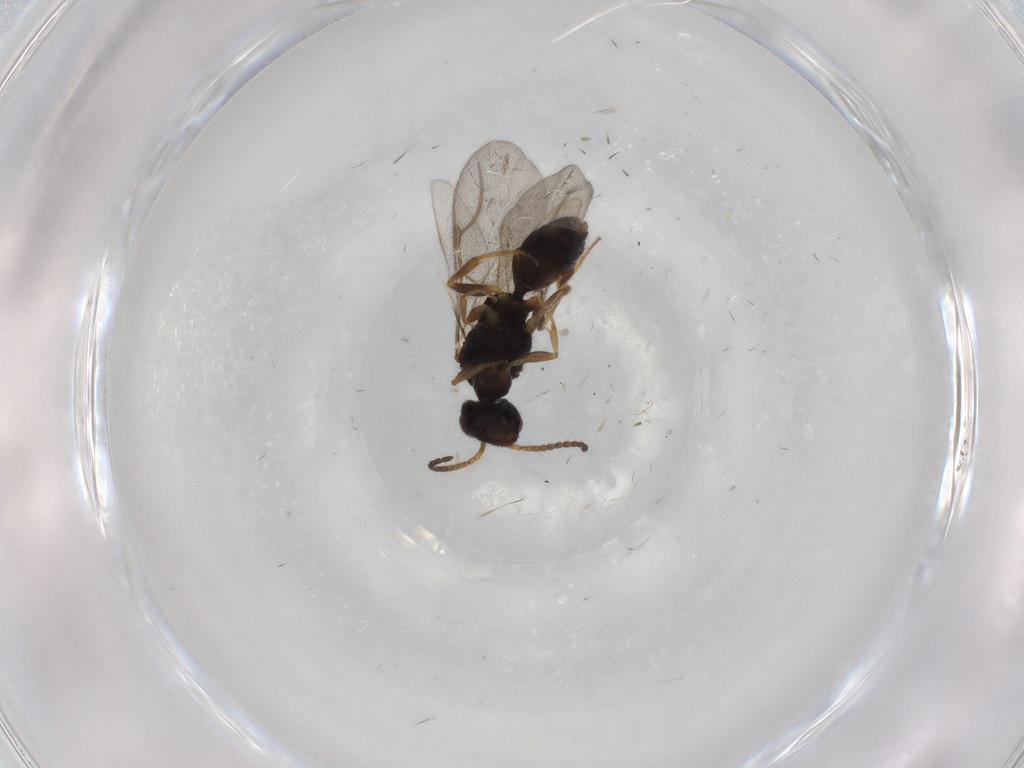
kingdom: Animalia
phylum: Arthropoda
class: Insecta
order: Hymenoptera
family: Bethylidae
